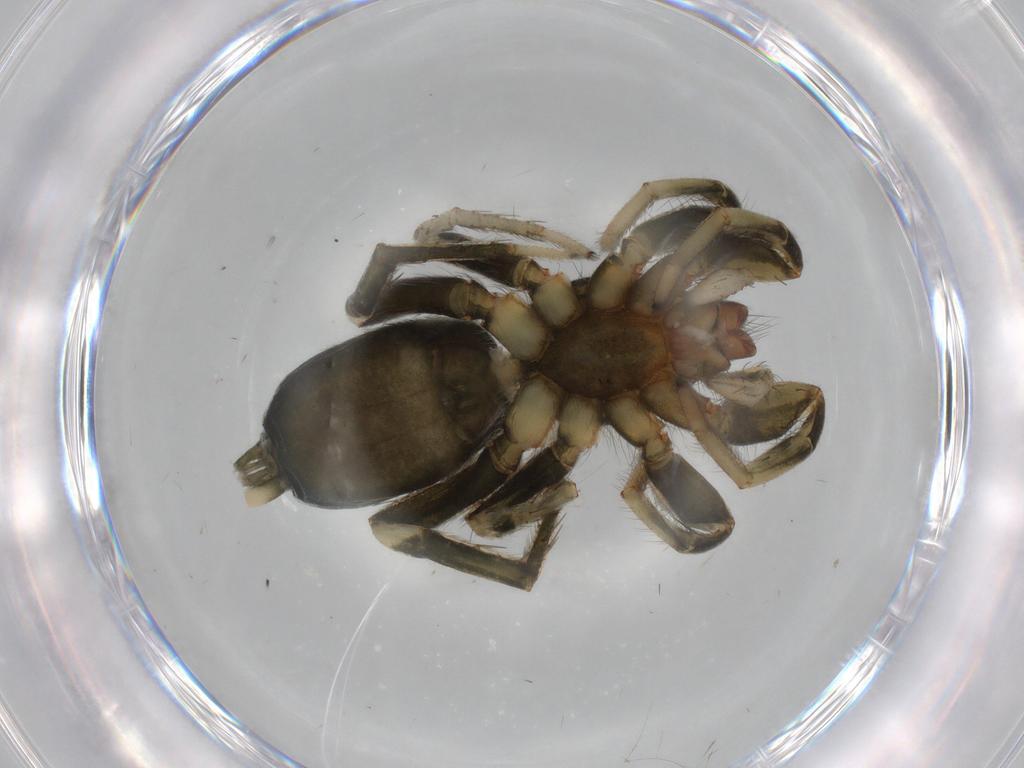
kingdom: Animalia
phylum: Arthropoda
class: Arachnida
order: Araneae
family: Gnaphosidae
